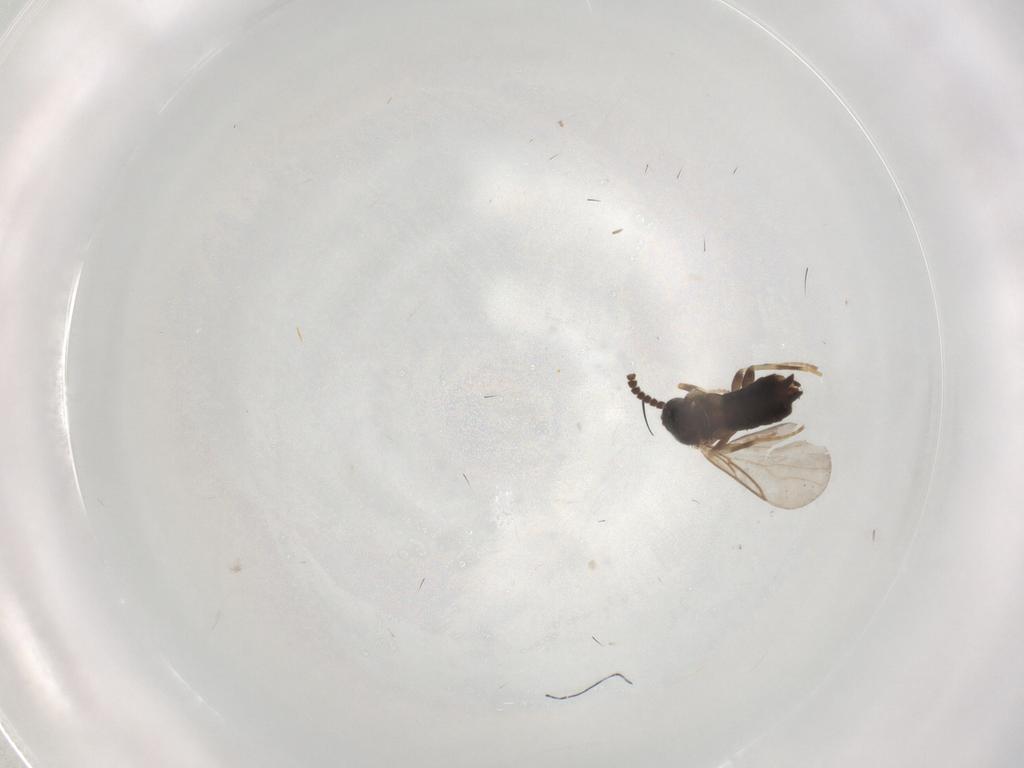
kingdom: Animalia
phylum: Arthropoda
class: Insecta
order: Diptera
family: Scatopsidae
